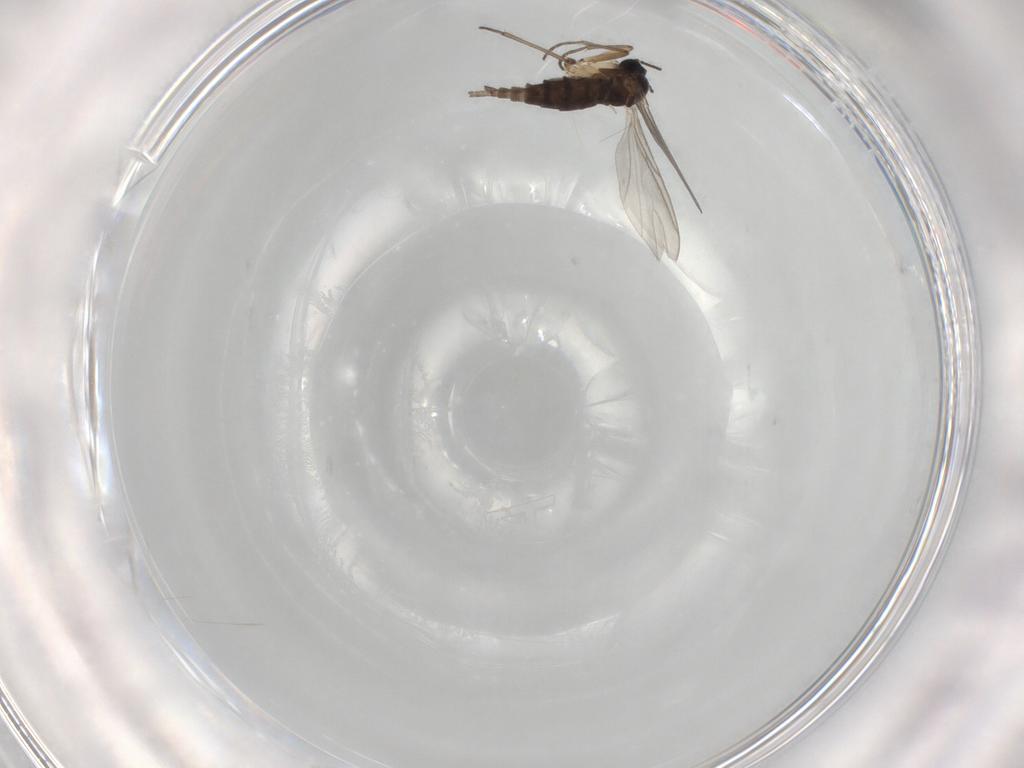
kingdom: Animalia
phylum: Arthropoda
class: Insecta
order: Diptera
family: Sciaridae
